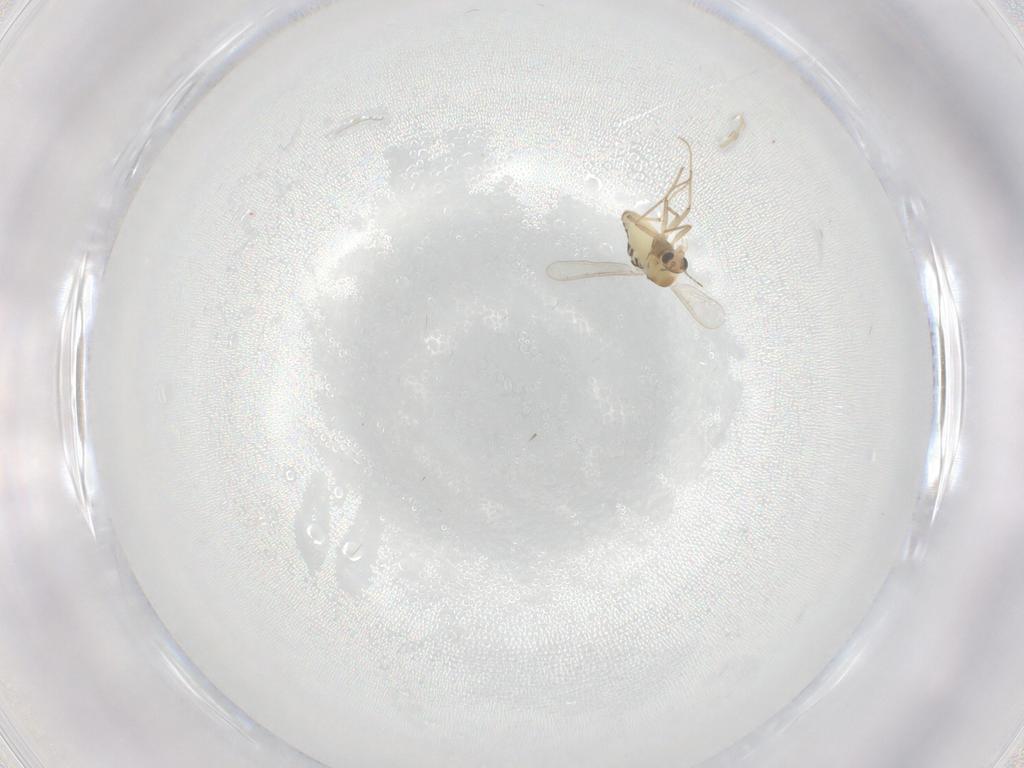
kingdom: Animalia
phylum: Arthropoda
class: Insecta
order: Diptera
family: Chironomidae
